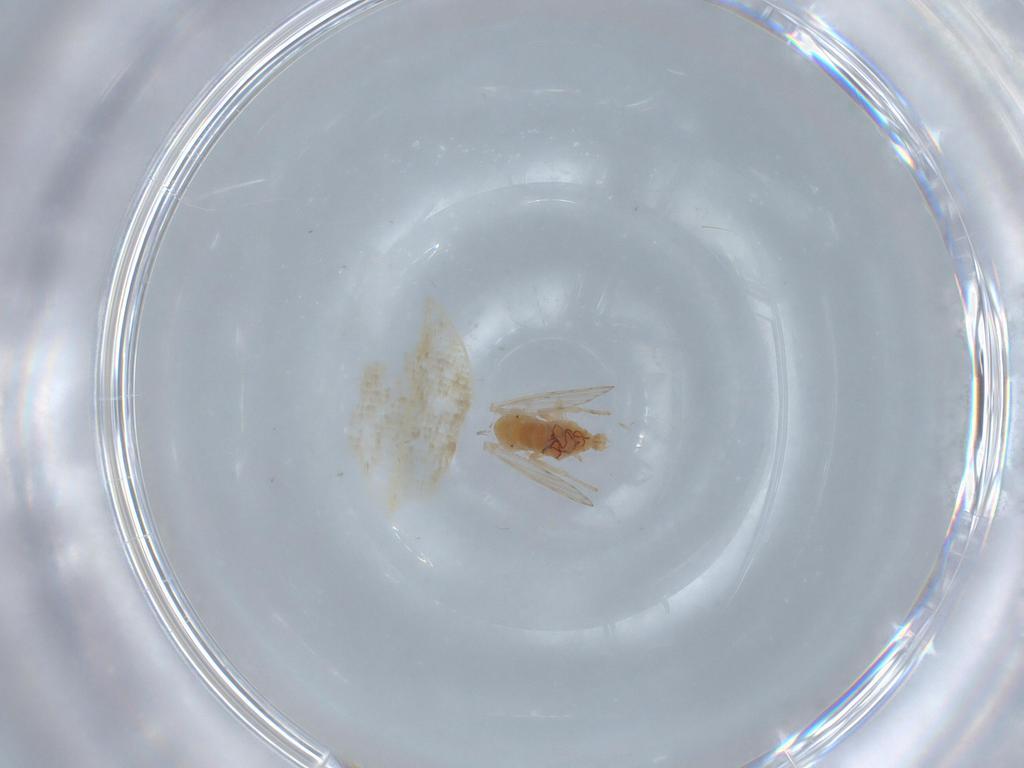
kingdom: Animalia
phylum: Arthropoda
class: Insecta
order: Diptera
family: Psychodidae
